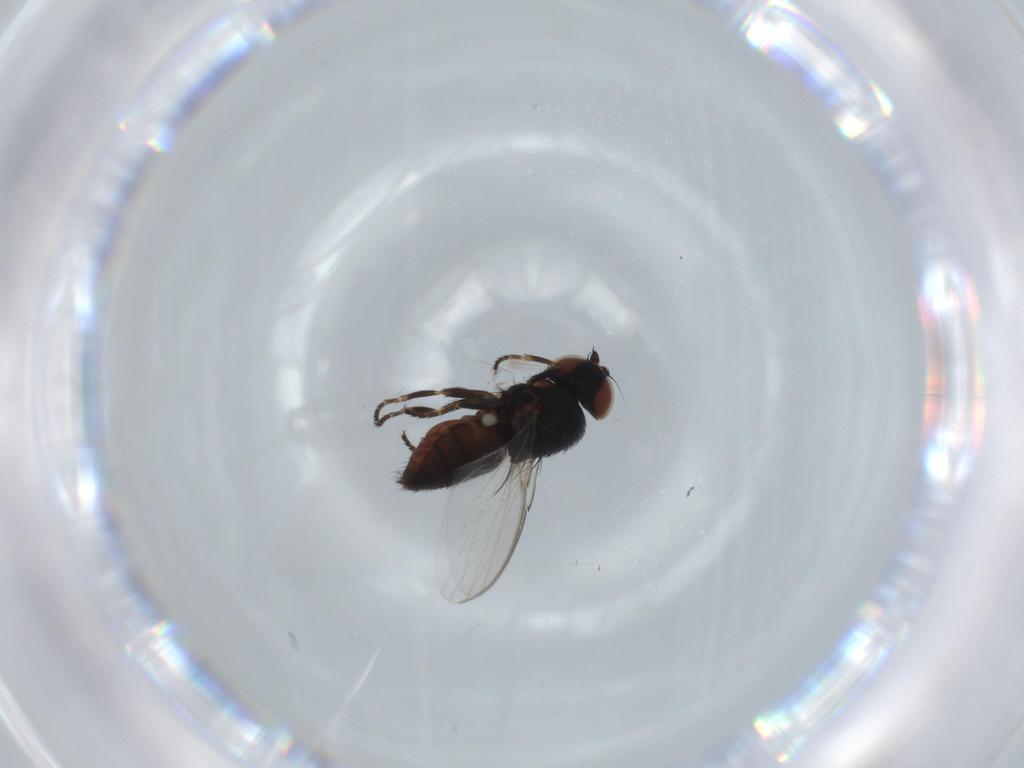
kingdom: Animalia
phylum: Arthropoda
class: Insecta
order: Diptera
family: Milichiidae
